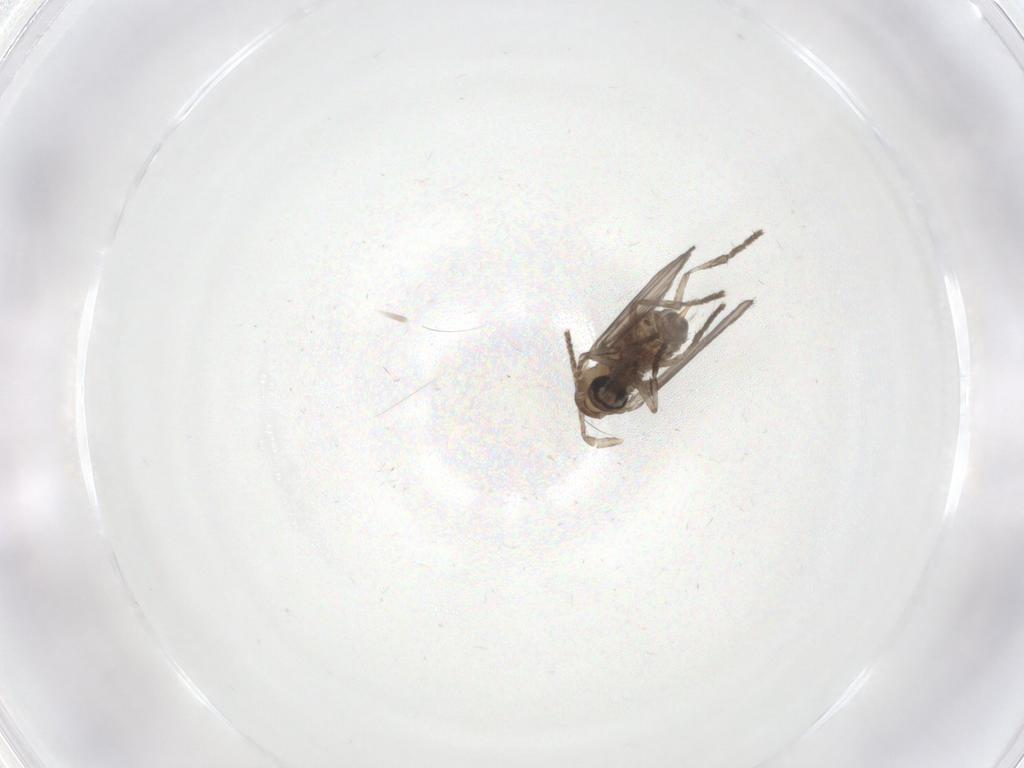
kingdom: Animalia
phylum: Arthropoda
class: Insecta
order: Diptera
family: Psychodidae
